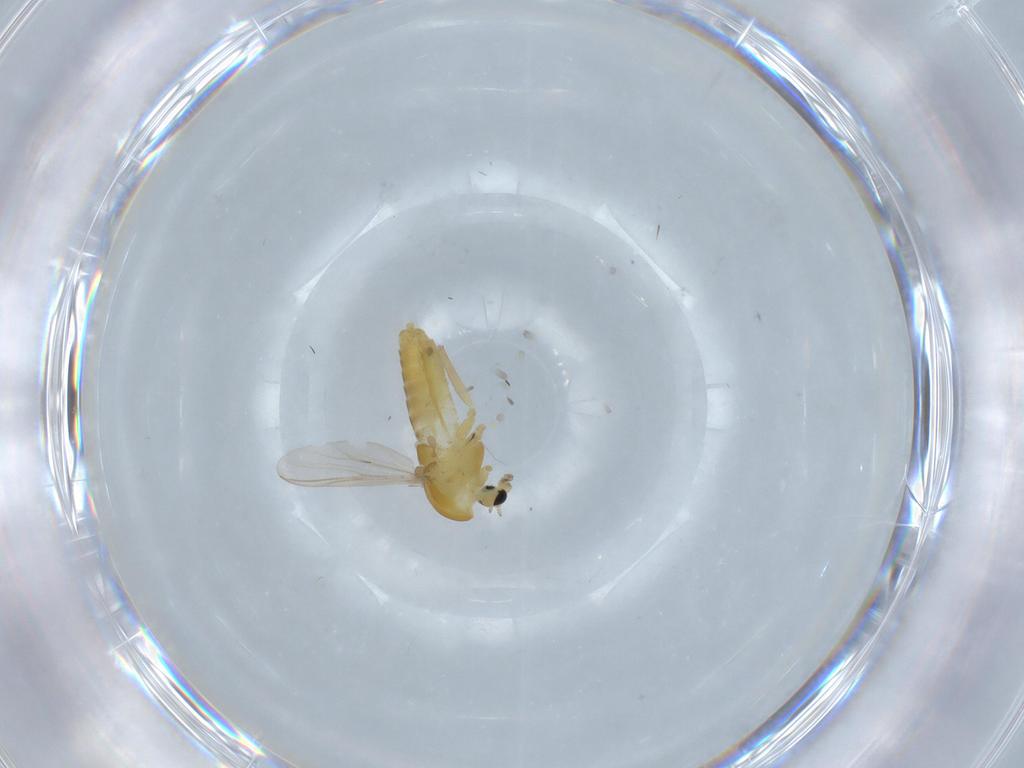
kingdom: Animalia
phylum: Arthropoda
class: Insecta
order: Diptera
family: Chironomidae
